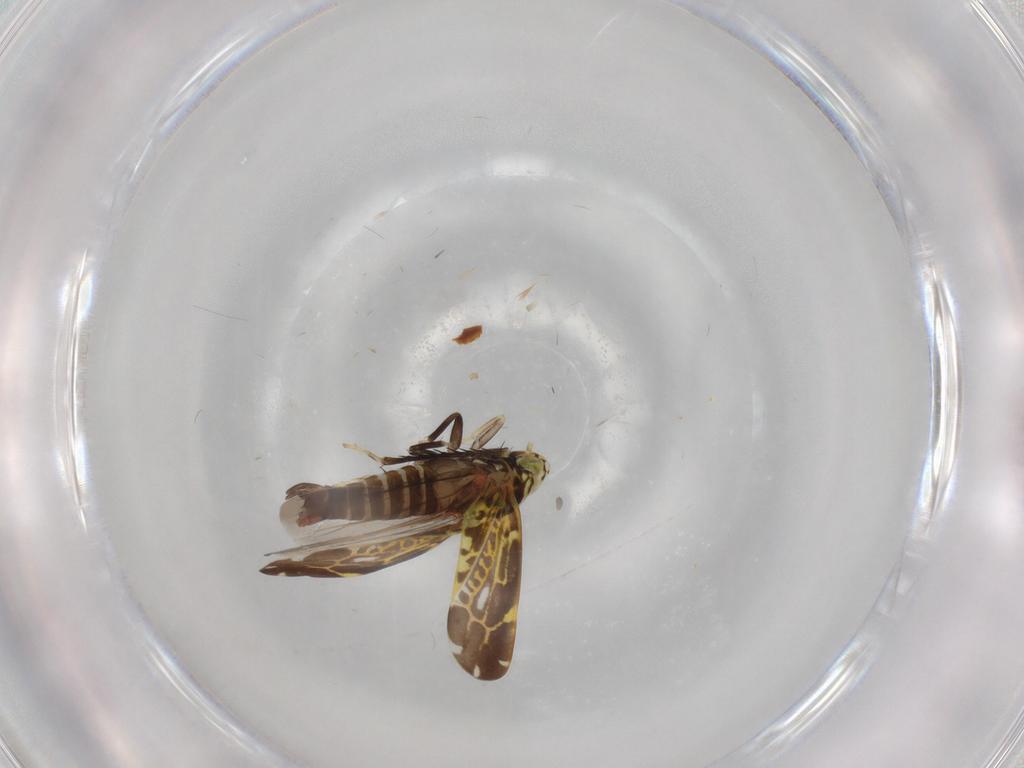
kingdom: Animalia
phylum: Arthropoda
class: Insecta
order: Hemiptera
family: Cicadellidae
